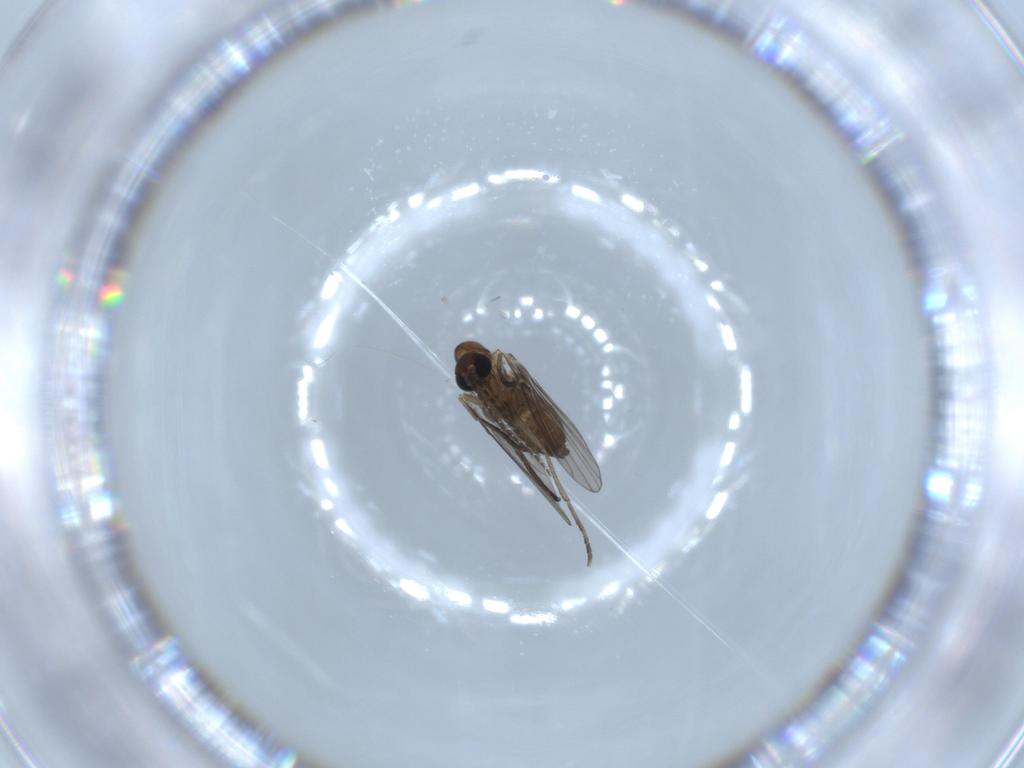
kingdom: Animalia
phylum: Arthropoda
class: Insecta
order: Diptera
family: Psychodidae
